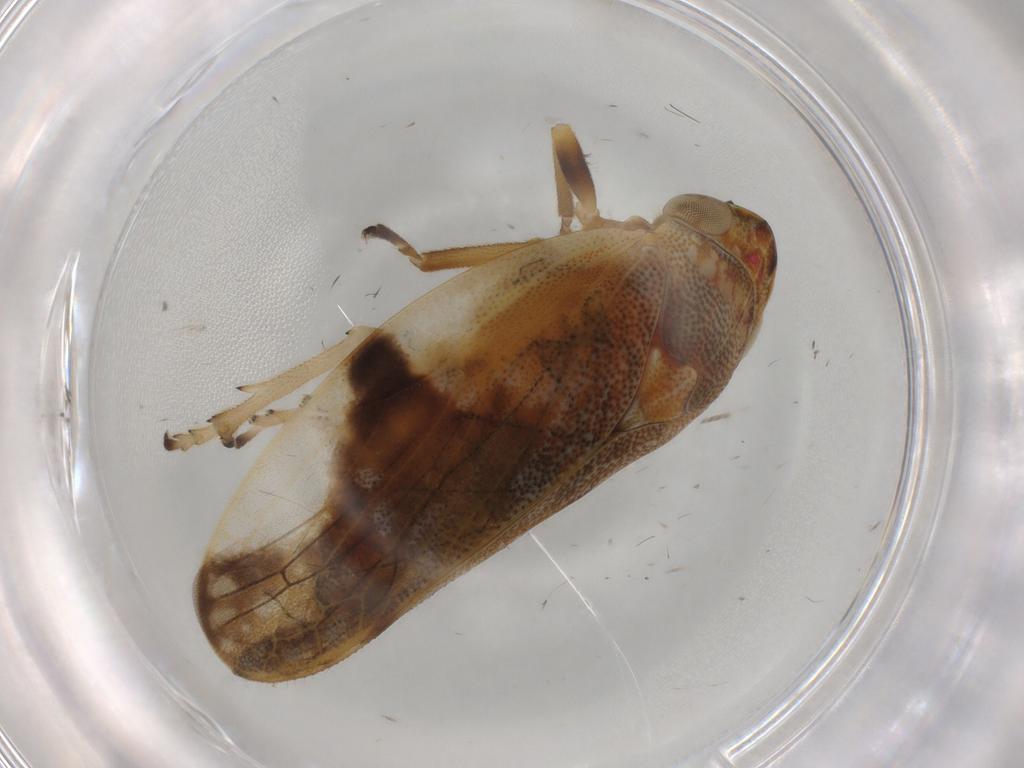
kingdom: Animalia
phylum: Arthropoda
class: Insecta
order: Hemiptera
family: Aphrophoridae
